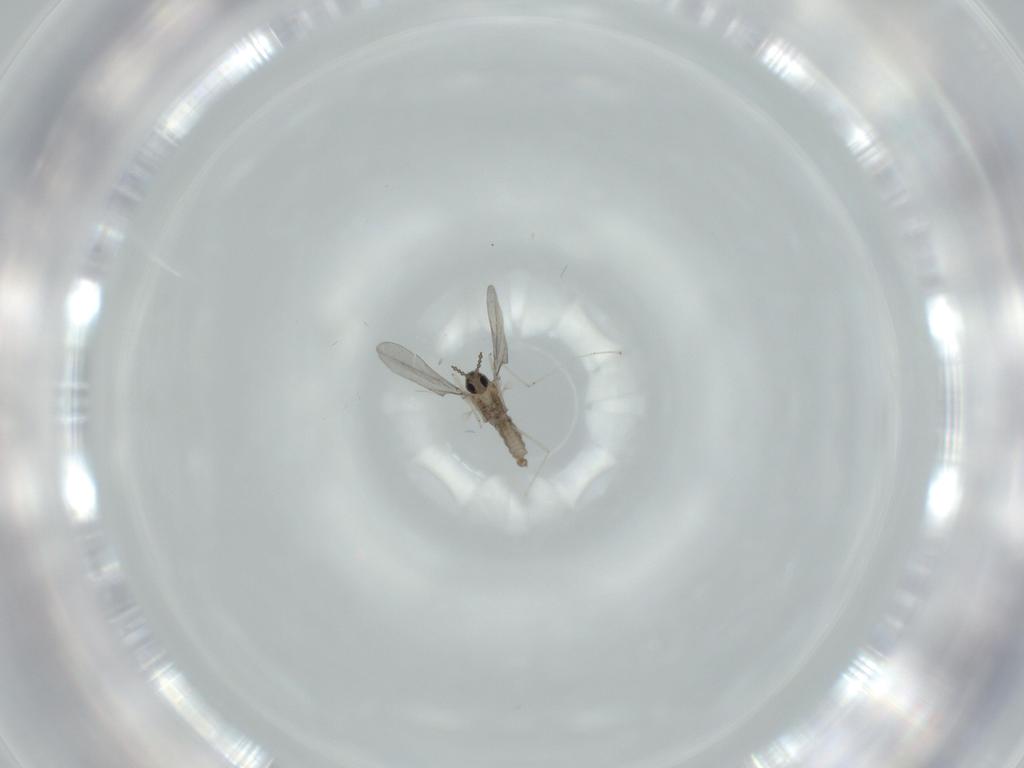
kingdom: Animalia
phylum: Arthropoda
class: Insecta
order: Diptera
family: Cecidomyiidae
